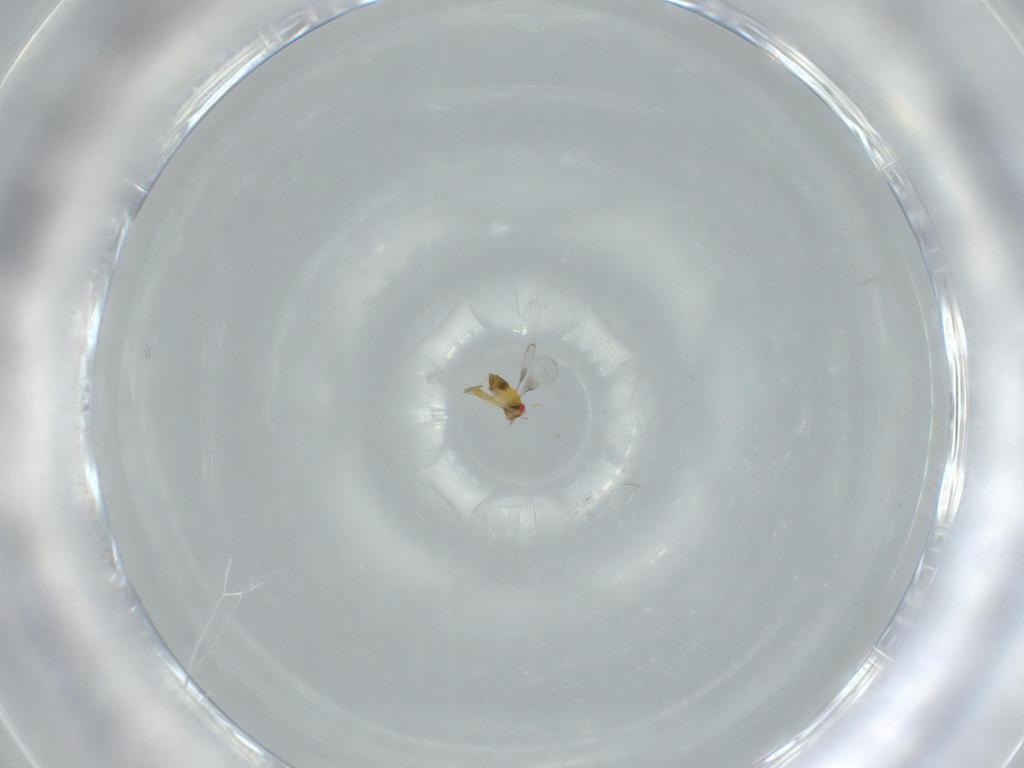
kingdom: Animalia
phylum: Arthropoda
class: Insecta
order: Hymenoptera
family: Trichogrammatidae
